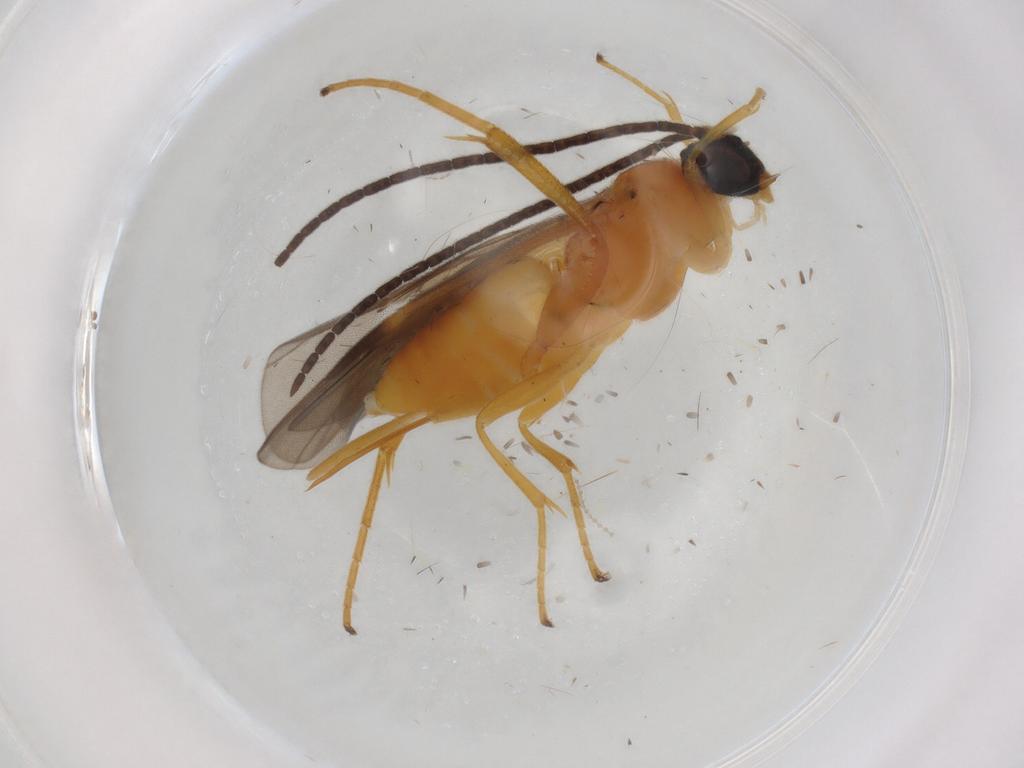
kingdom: Animalia
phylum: Arthropoda
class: Insecta
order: Hymenoptera
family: Braconidae
